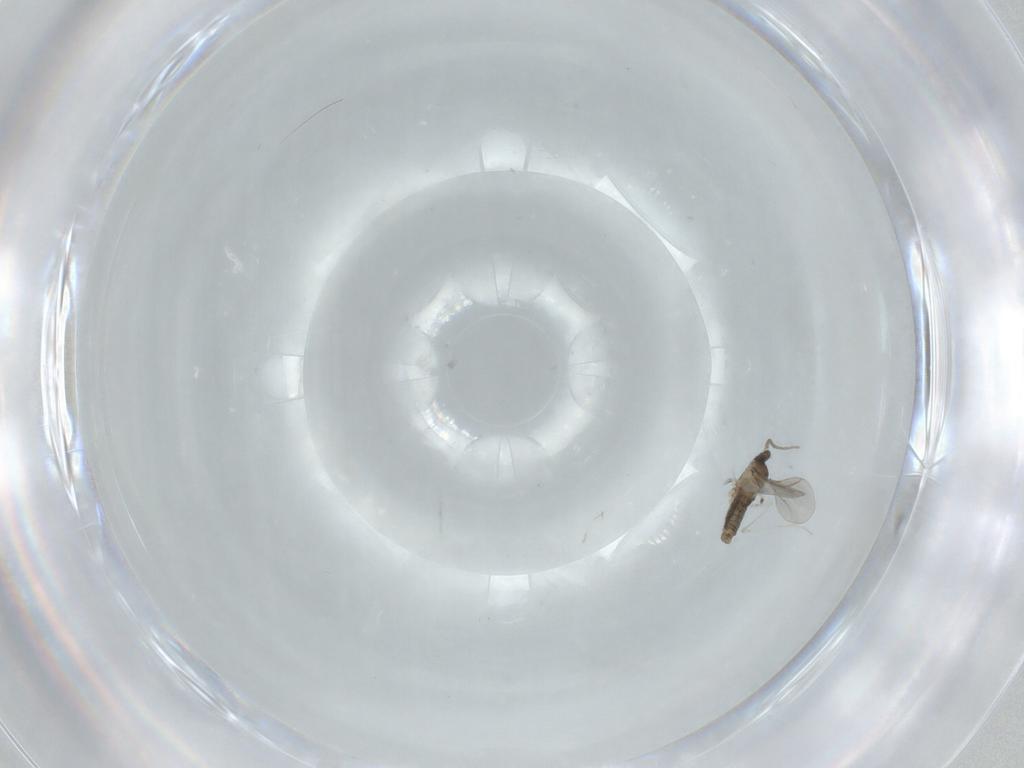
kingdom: Animalia
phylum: Arthropoda
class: Insecta
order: Diptera
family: Cecidomyiidae
